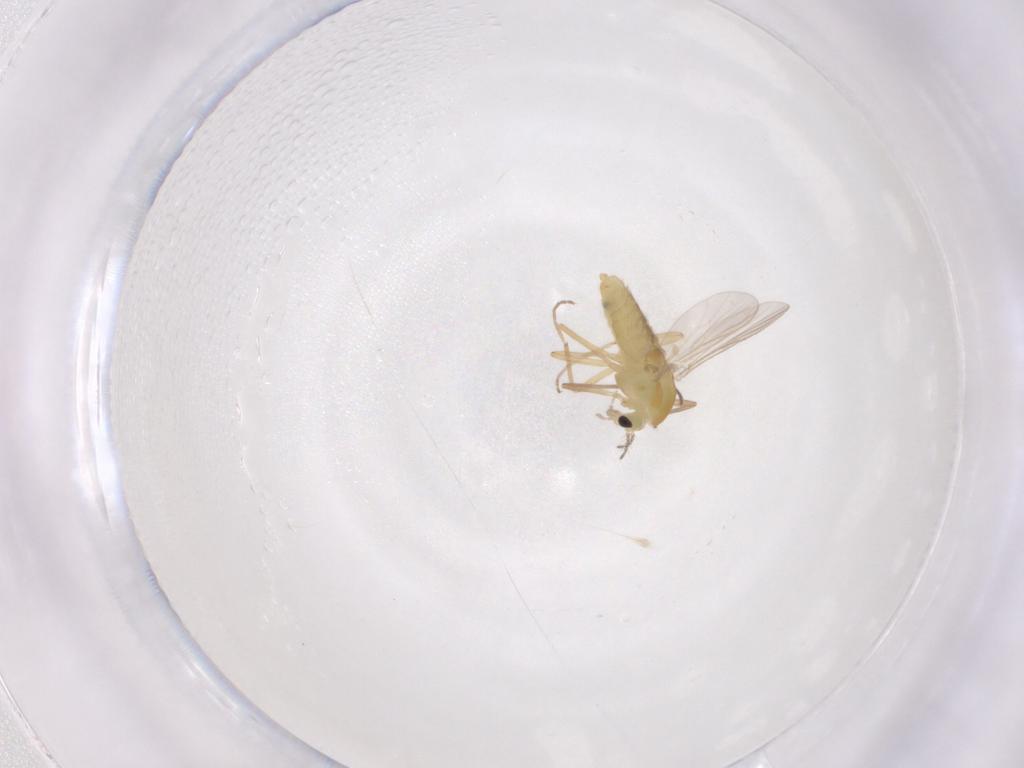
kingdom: Animalia
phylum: Arthropoda
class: Insecta
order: Diptera
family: Chironomidae
